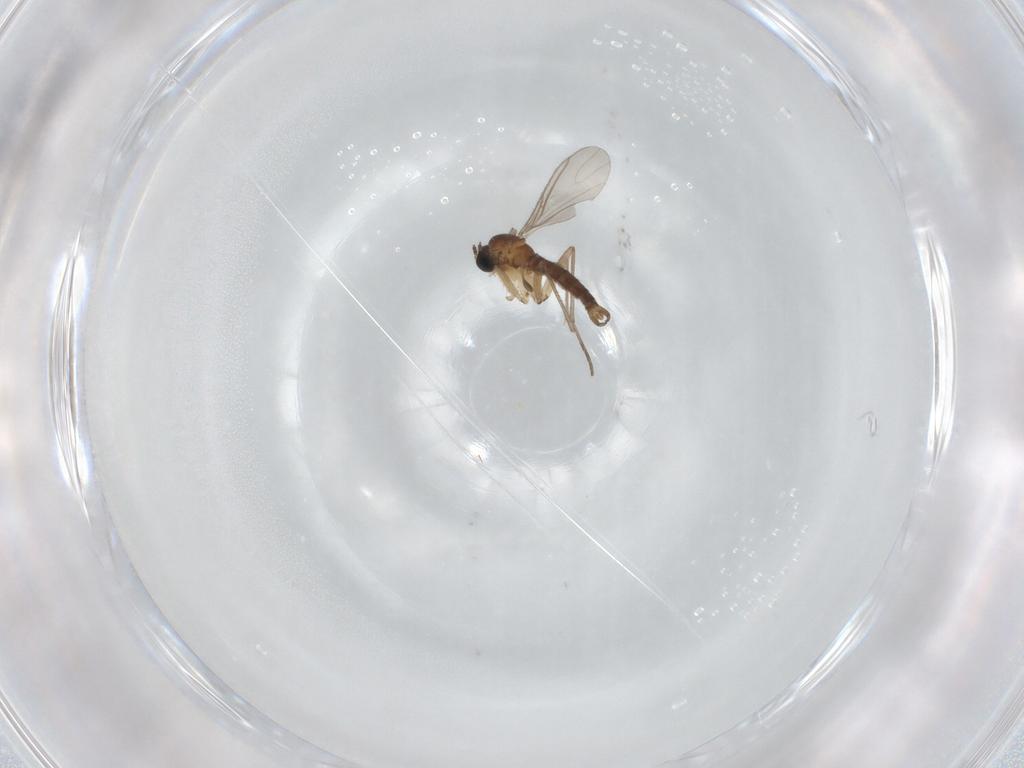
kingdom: Animalia
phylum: Arthropoda
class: Insecta
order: Diptera
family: Sciaridae
